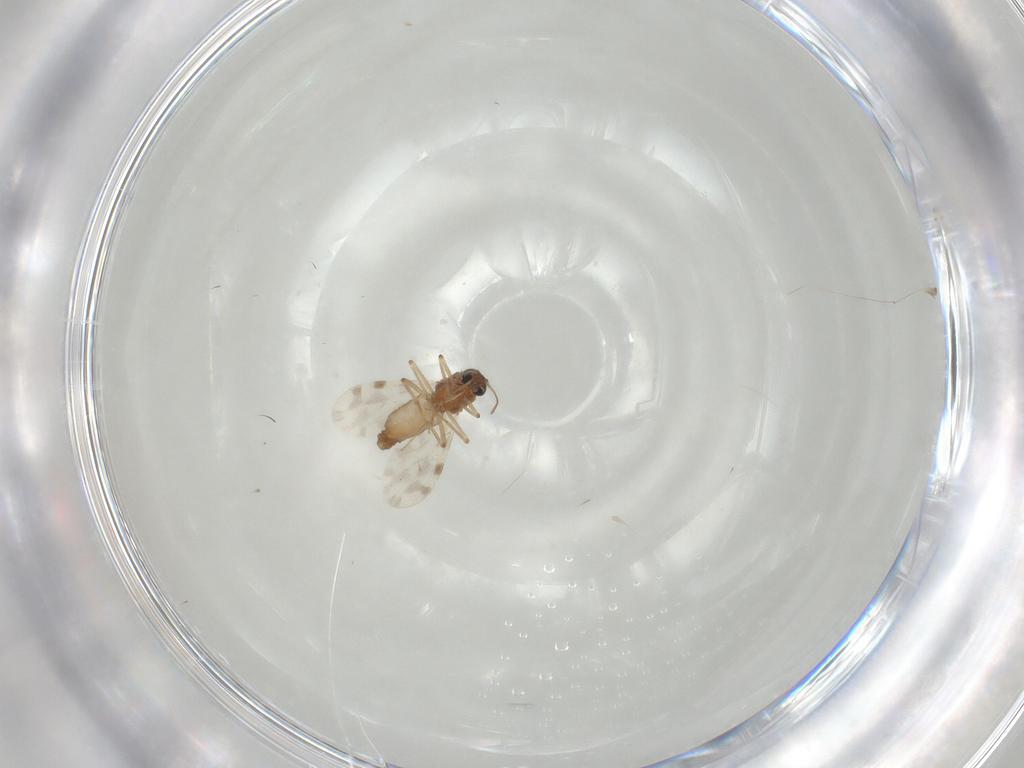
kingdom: Animalia
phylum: Arthropoda
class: Insecta
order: Diptera
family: Ceratopogonidae
